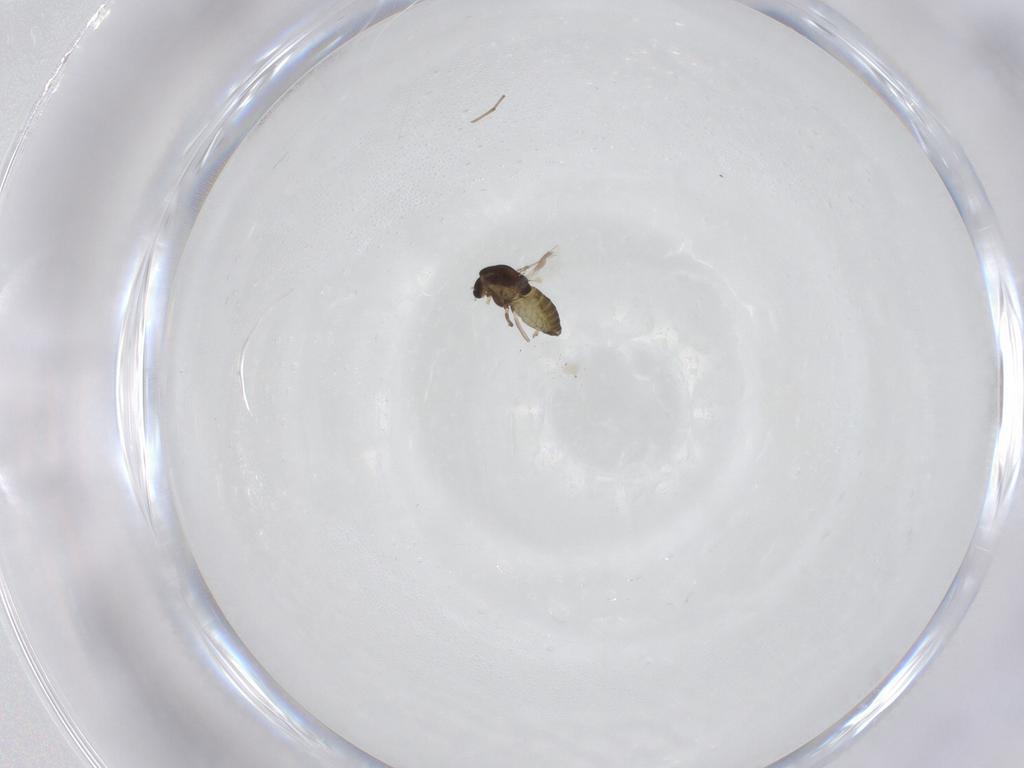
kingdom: Animalia
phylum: Arthropoda
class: Insecta
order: Diptera
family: Chironomidae
